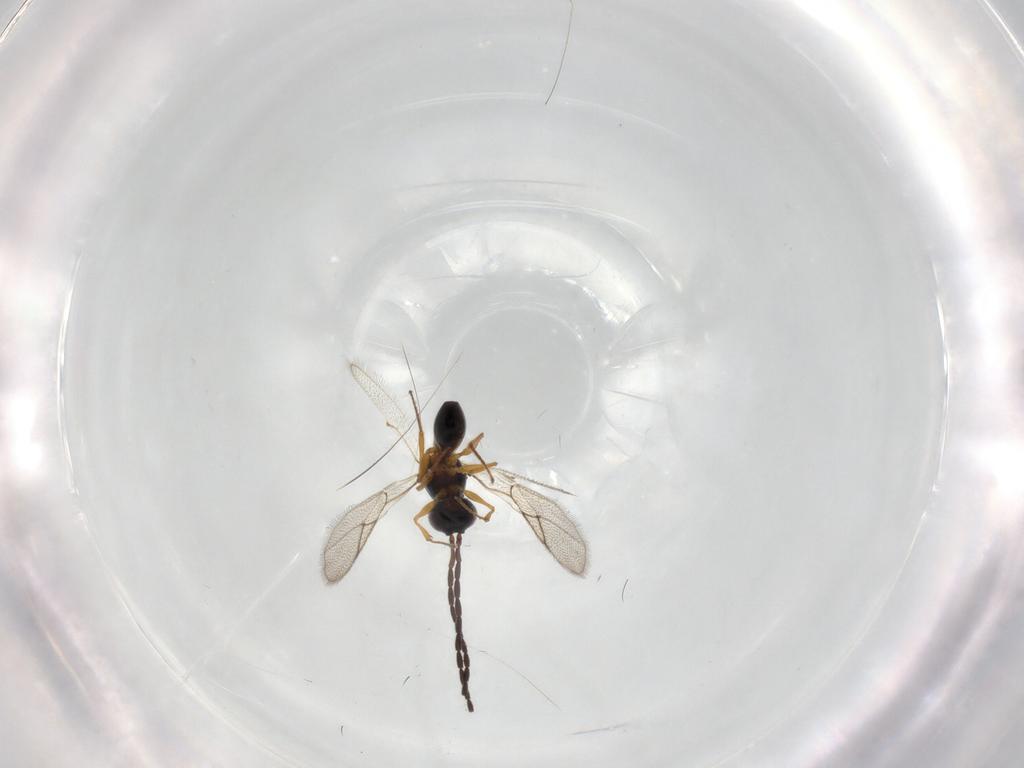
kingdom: Animalia
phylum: Arthropoda
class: Insecta
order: Hymenoptera
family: Figitidae
